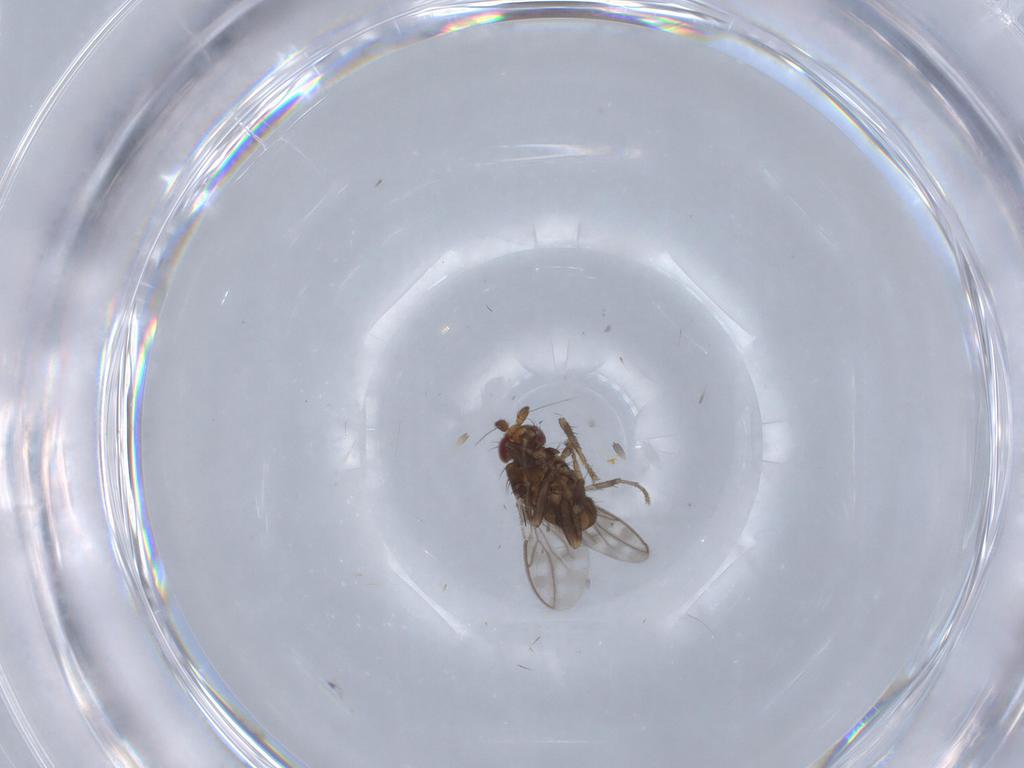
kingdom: Animalia
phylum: Arthropoda
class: Insecta
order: Diptera
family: Sphaeroceridae
